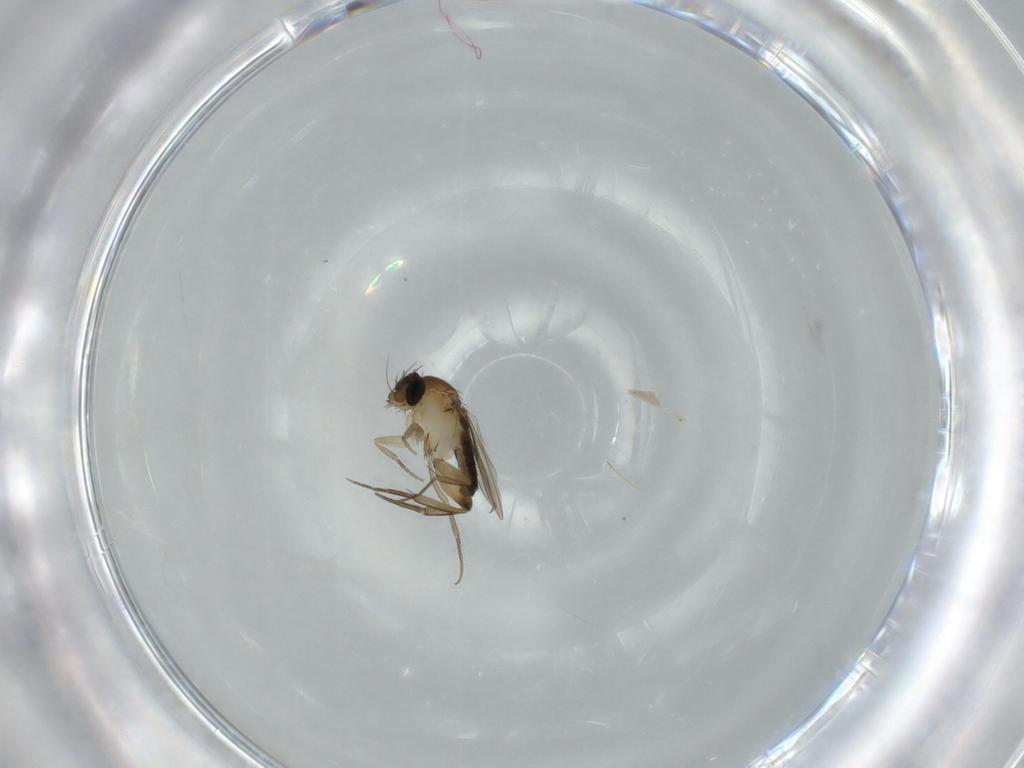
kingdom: Animalia
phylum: Arthropoda
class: Insecta
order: Diptera
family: Phoridae
